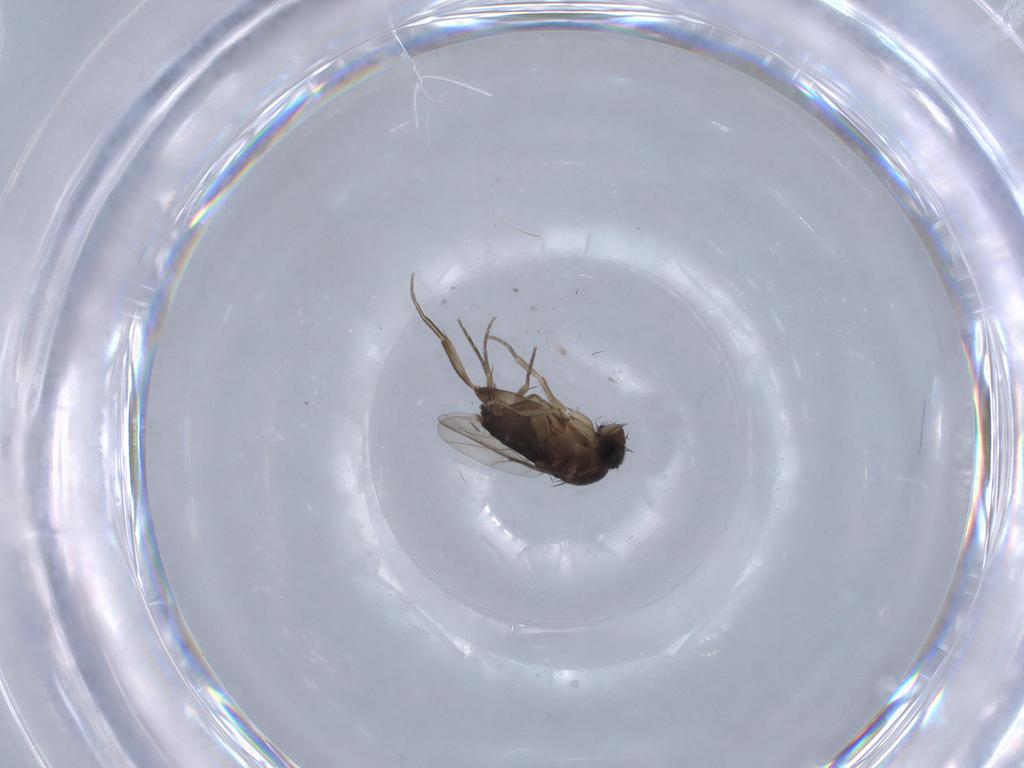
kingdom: Animalia
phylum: Arthropoda
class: Insecta
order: Diptera
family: Phoridae
